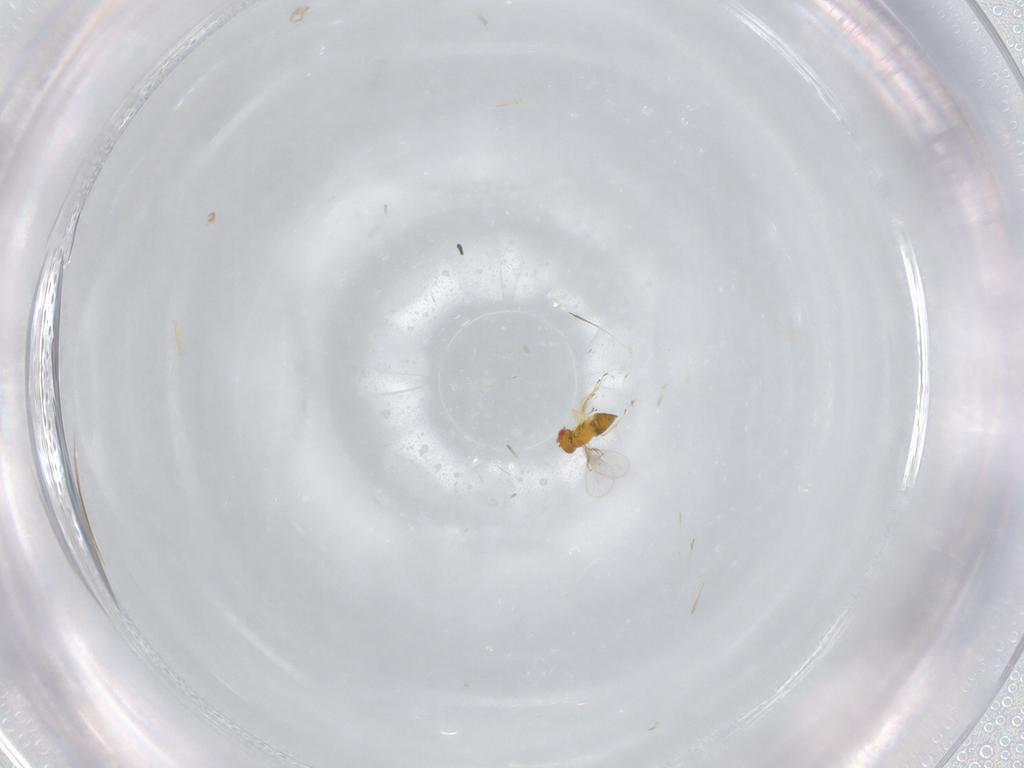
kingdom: Animalia
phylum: Arthropoda
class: Insecta
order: Hymenoptera
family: Trichogrammatidae
